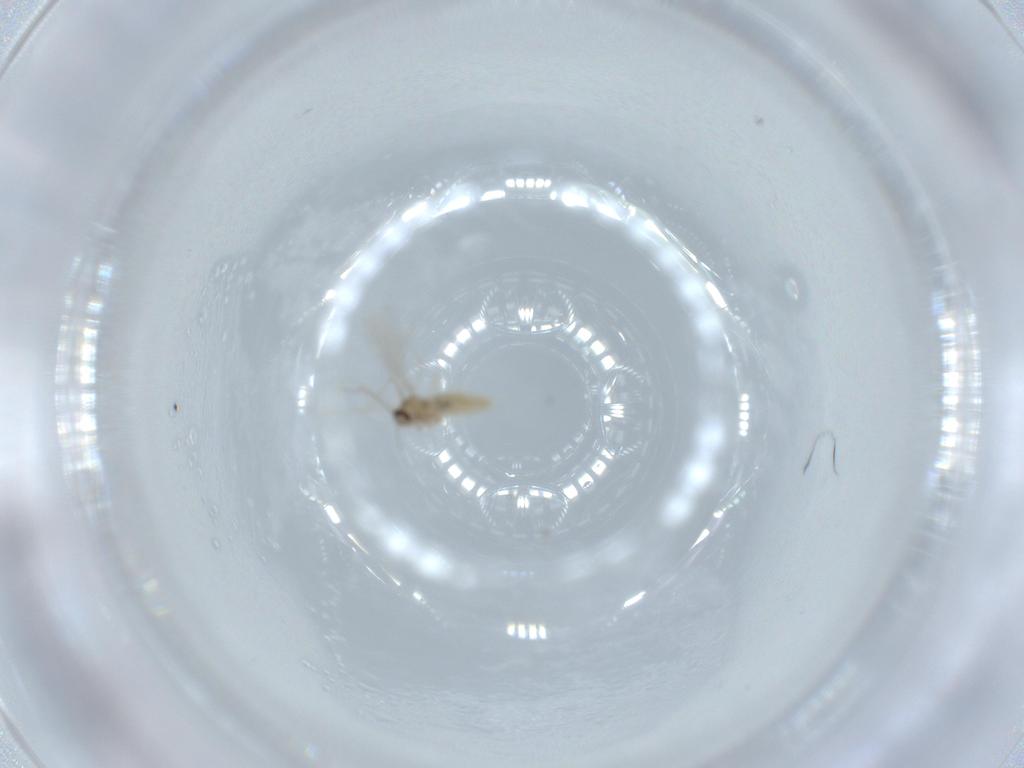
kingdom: Animalia
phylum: Arthropoda
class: Insecta
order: Diptera
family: Cecidomyiidae
